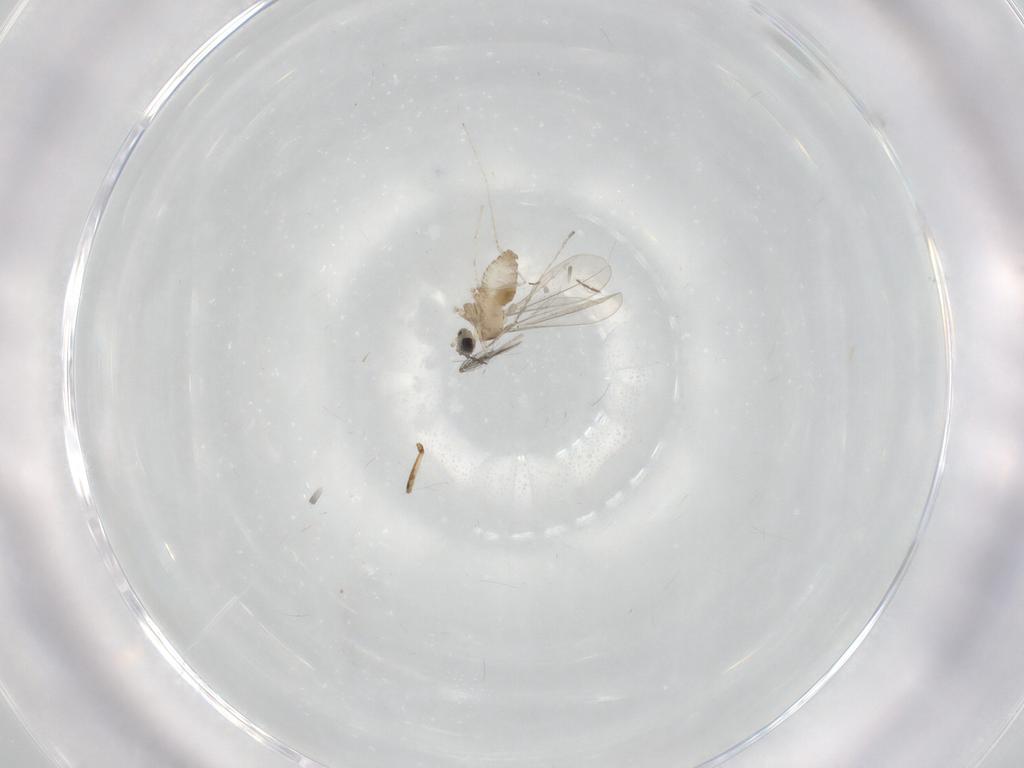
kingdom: Animalia
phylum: Arthropoda
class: Insecta
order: Diptera
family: Cecidomyiidae
